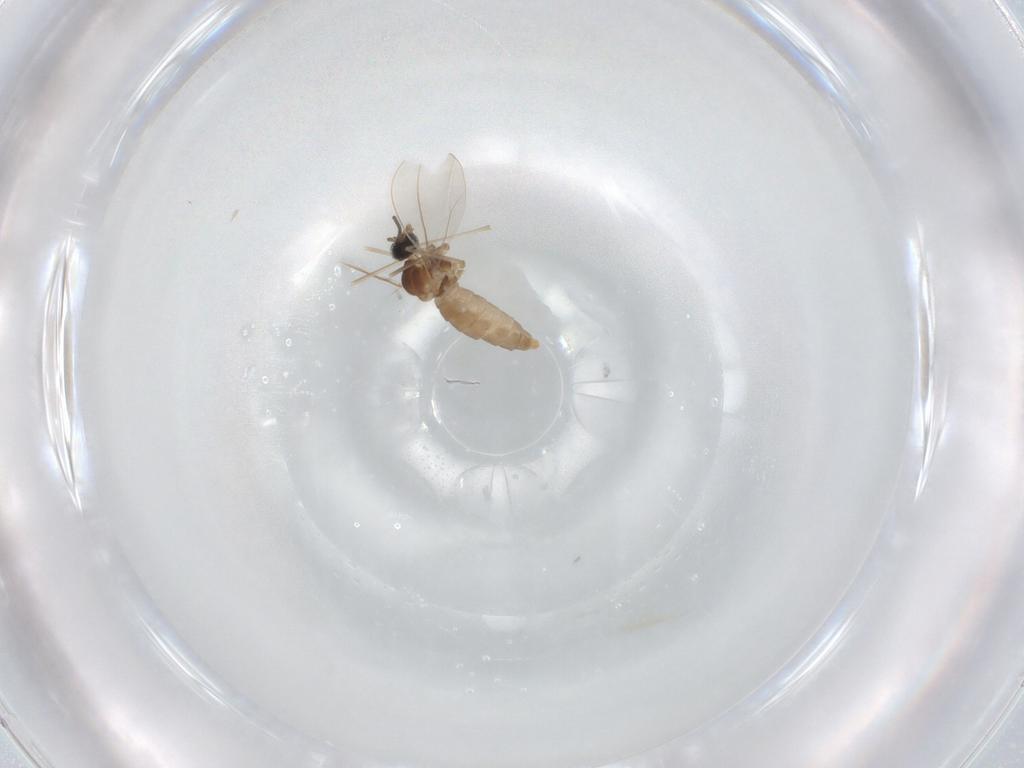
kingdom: Animalia
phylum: Arthropoda
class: Insecta
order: Diptera
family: Cecidomyiidae
